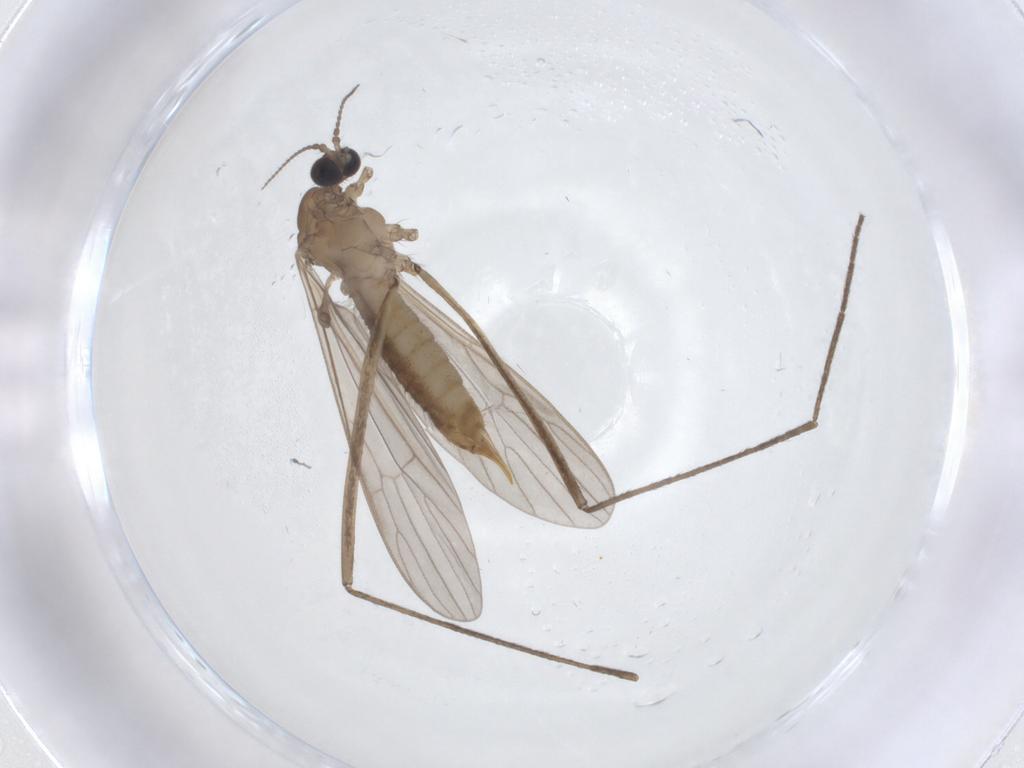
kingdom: Animalia
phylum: Arthropoda
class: Insecta
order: Diptera
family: Limoniidae
